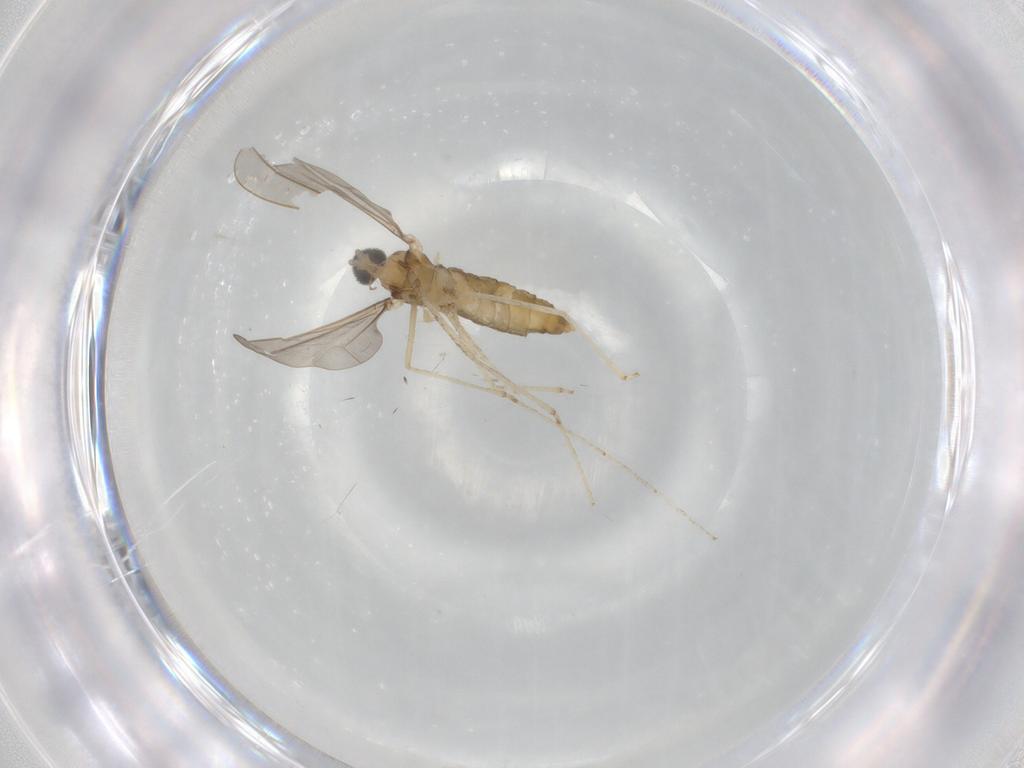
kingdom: Animalia
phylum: Arthropoda
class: Insecta
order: Diptera
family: Cecidomyiidae
